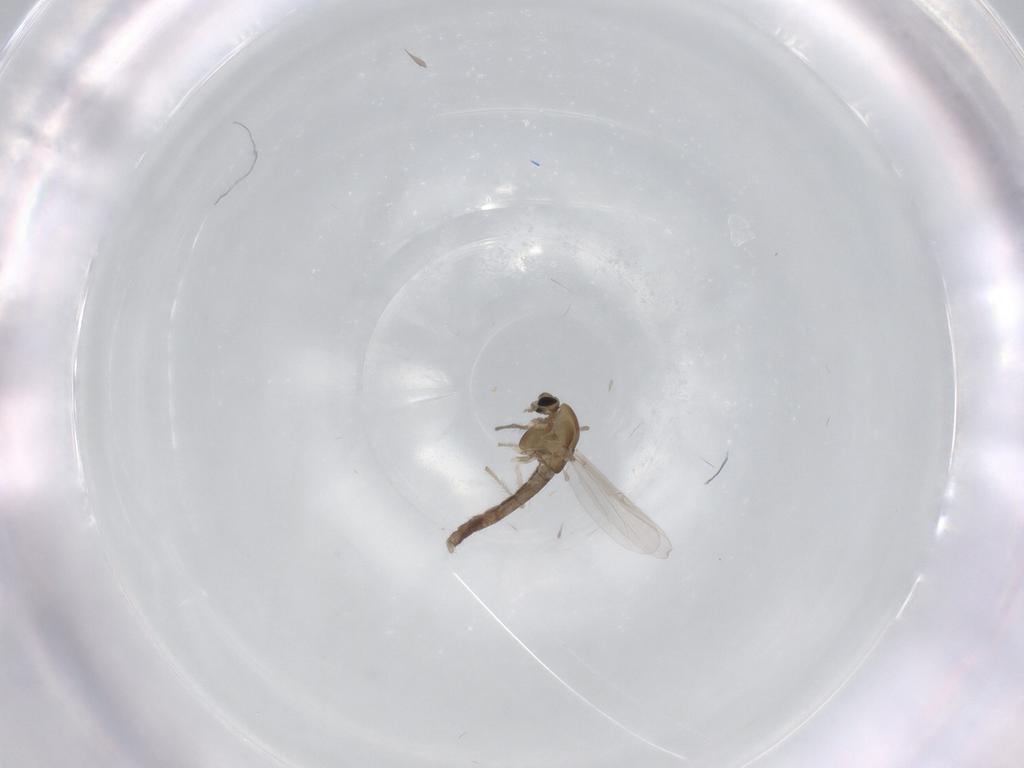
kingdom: Animalia
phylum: Arthropoda
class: Insecta
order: Diptera
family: Chironomidae
